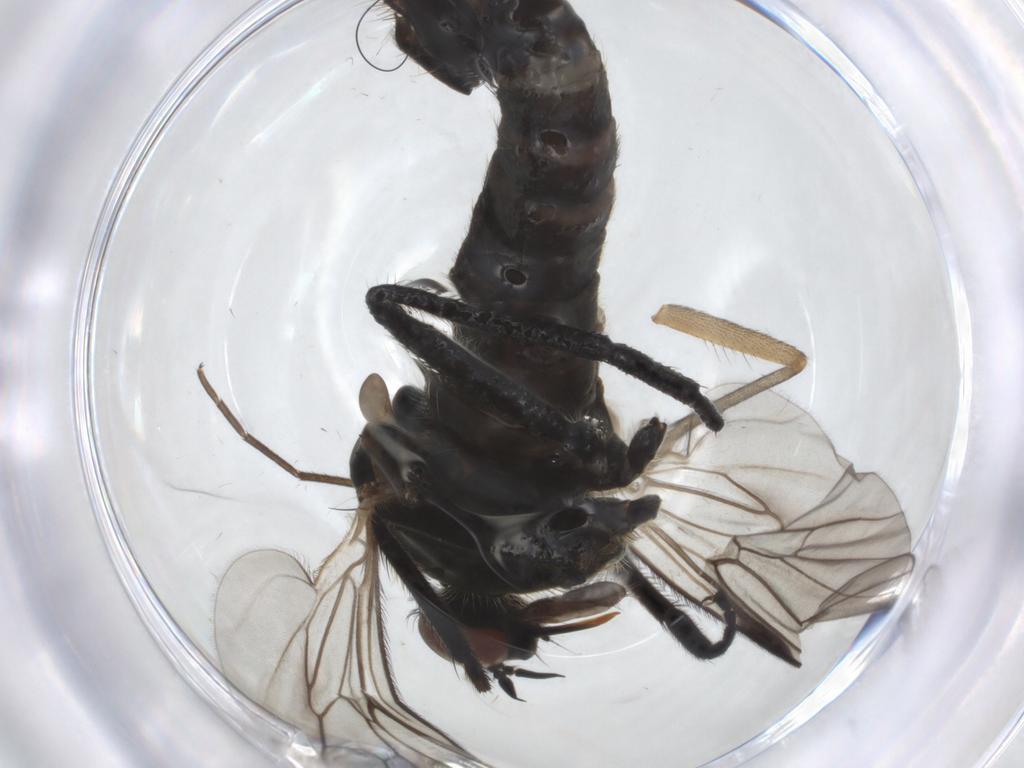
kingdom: Animalia
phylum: Arthropoda
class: Insecta
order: Diptera
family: Empididae
